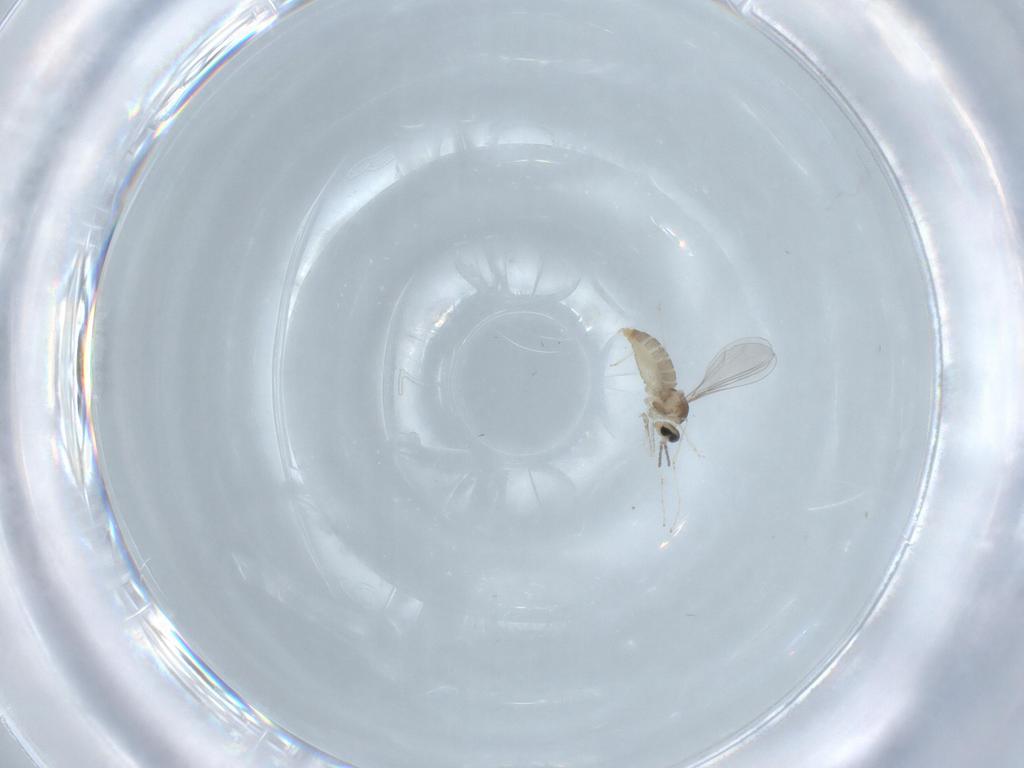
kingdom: Animalia
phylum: Arthropoda
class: Insecta
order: Diptera
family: Cecidomyiidae
